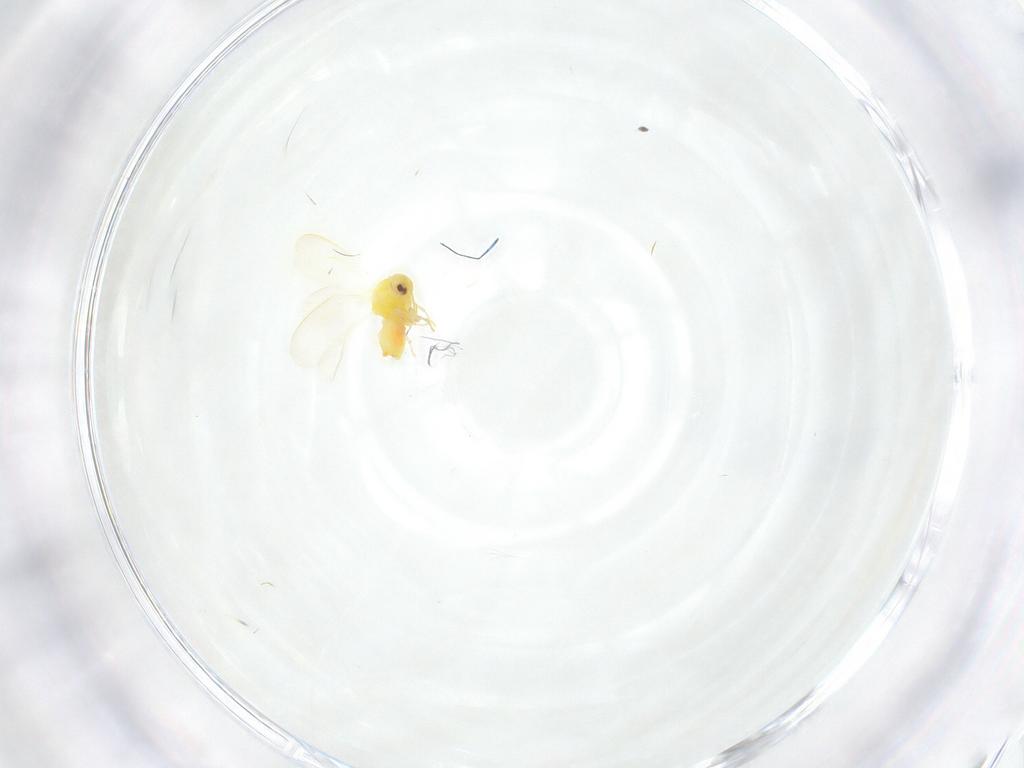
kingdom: Animalia
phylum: Arthropoda
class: Insecta
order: Hemiptera
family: Aleyrodidae
